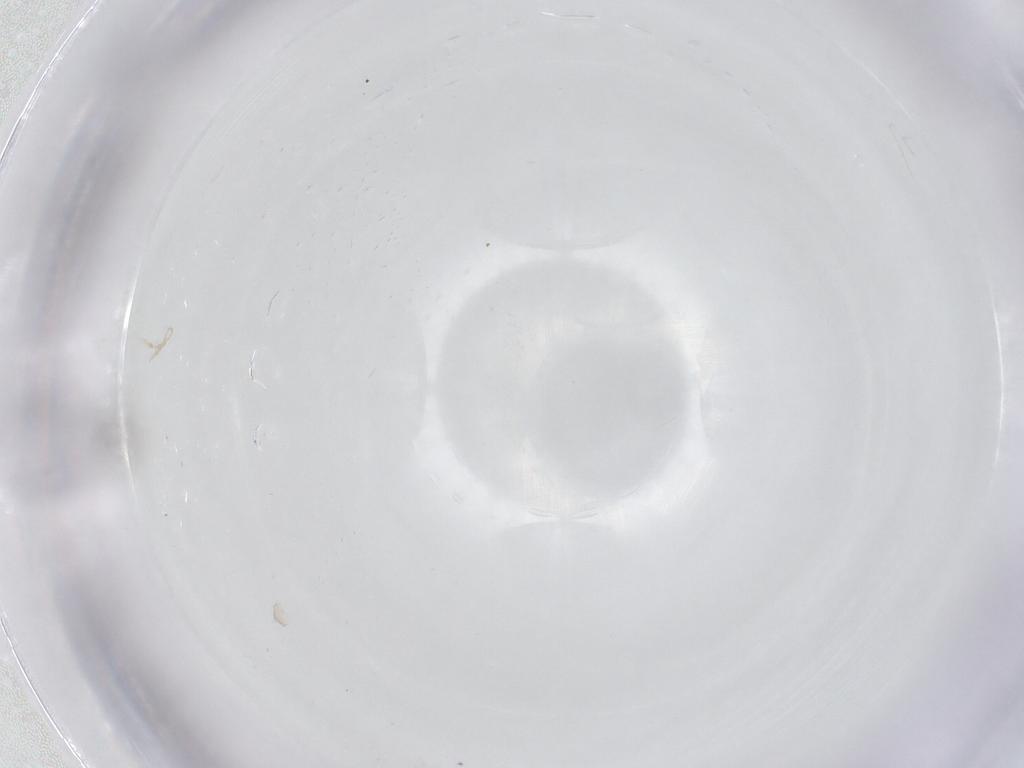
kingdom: Animalia
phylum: Arthropoda
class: Insecta
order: Diptera
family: Cecidomyiidae
